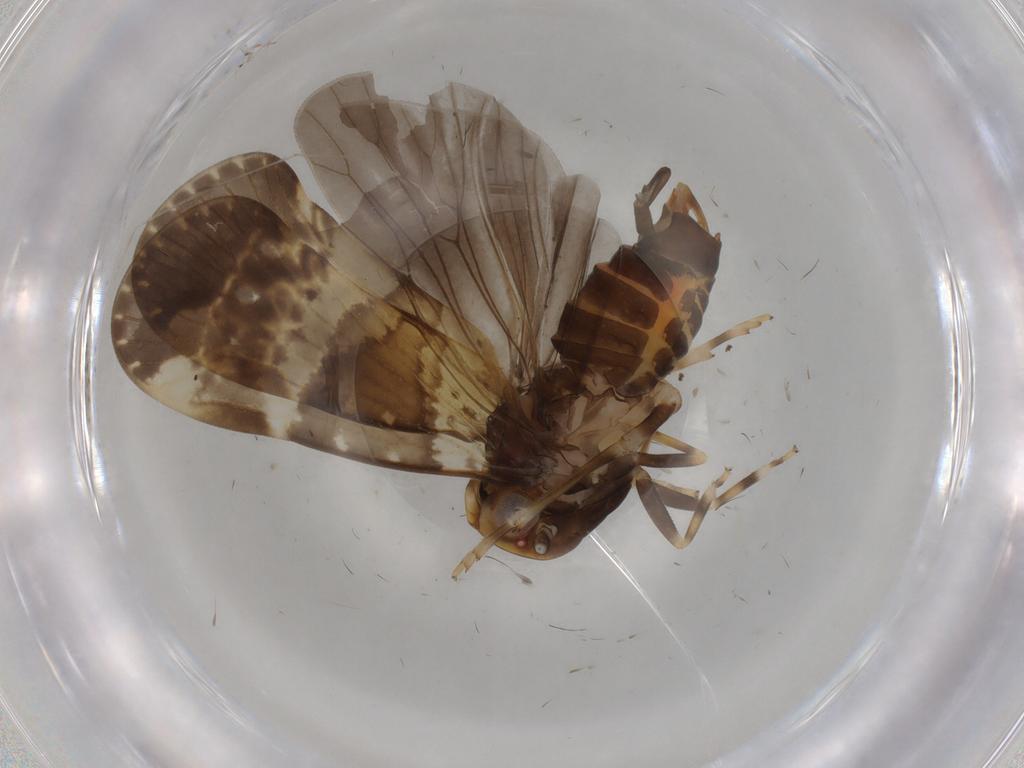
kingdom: Animalia
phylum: Arthropoda
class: Insecta
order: Hemiptera
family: Cixiidae
